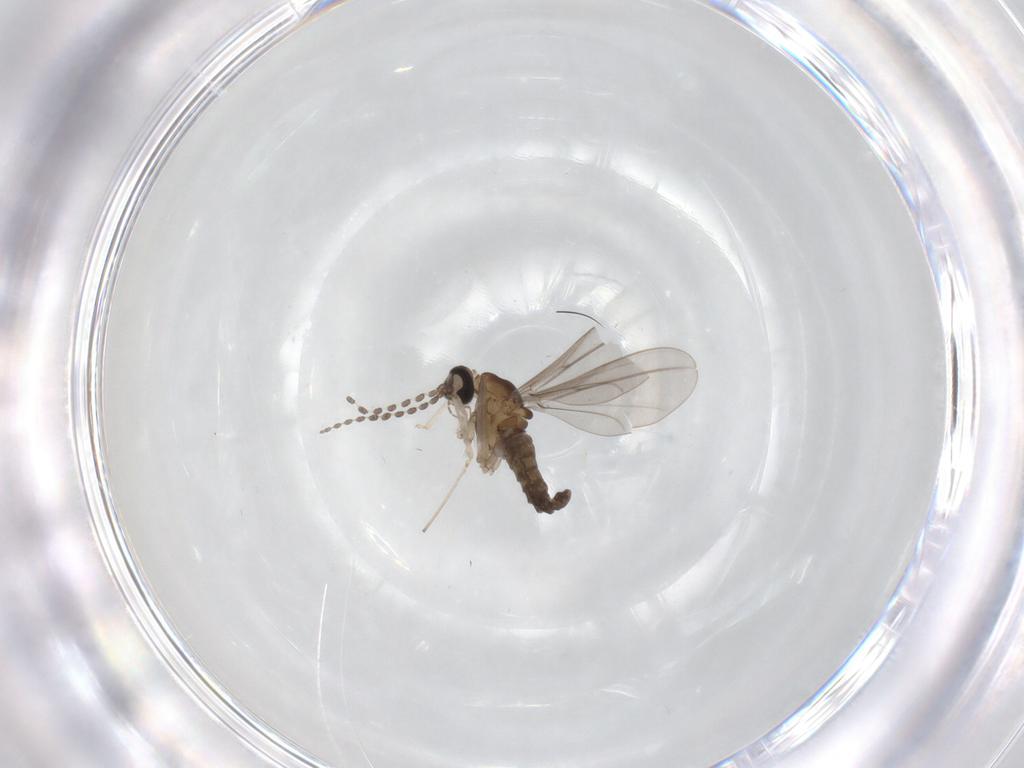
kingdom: Animalia
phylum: Arthropoda
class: Insecta
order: Diptera
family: Cecidomyiidae
